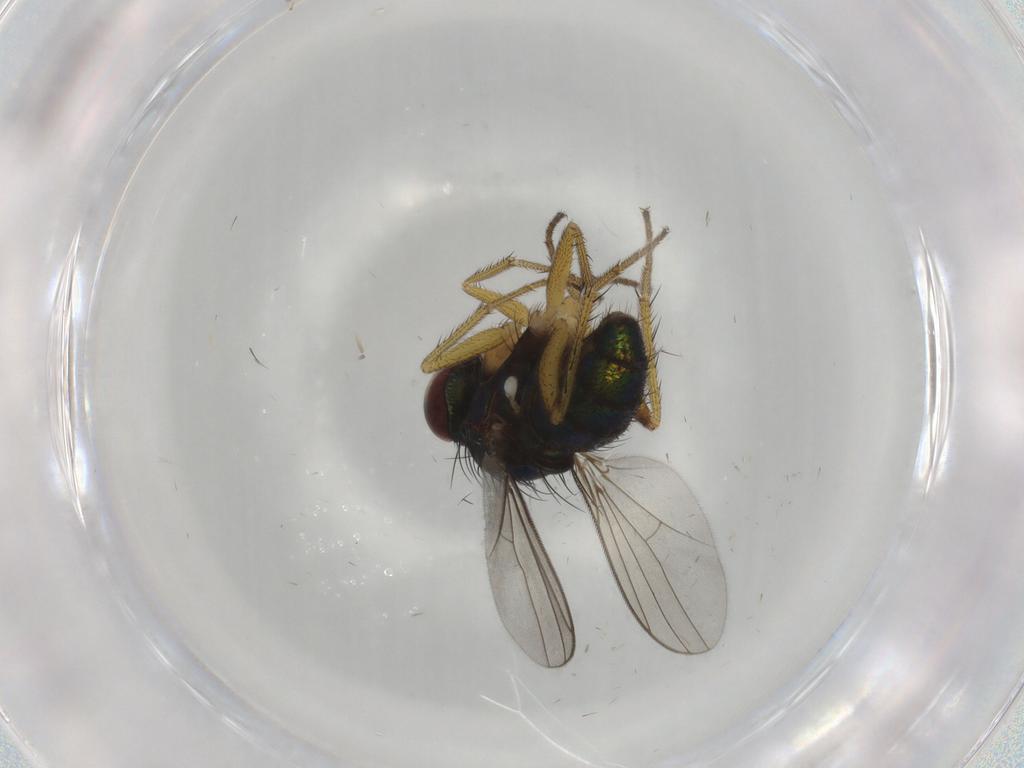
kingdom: Animalia
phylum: Arthropoda
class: Insecta
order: Diptera
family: Dolichopodidae
